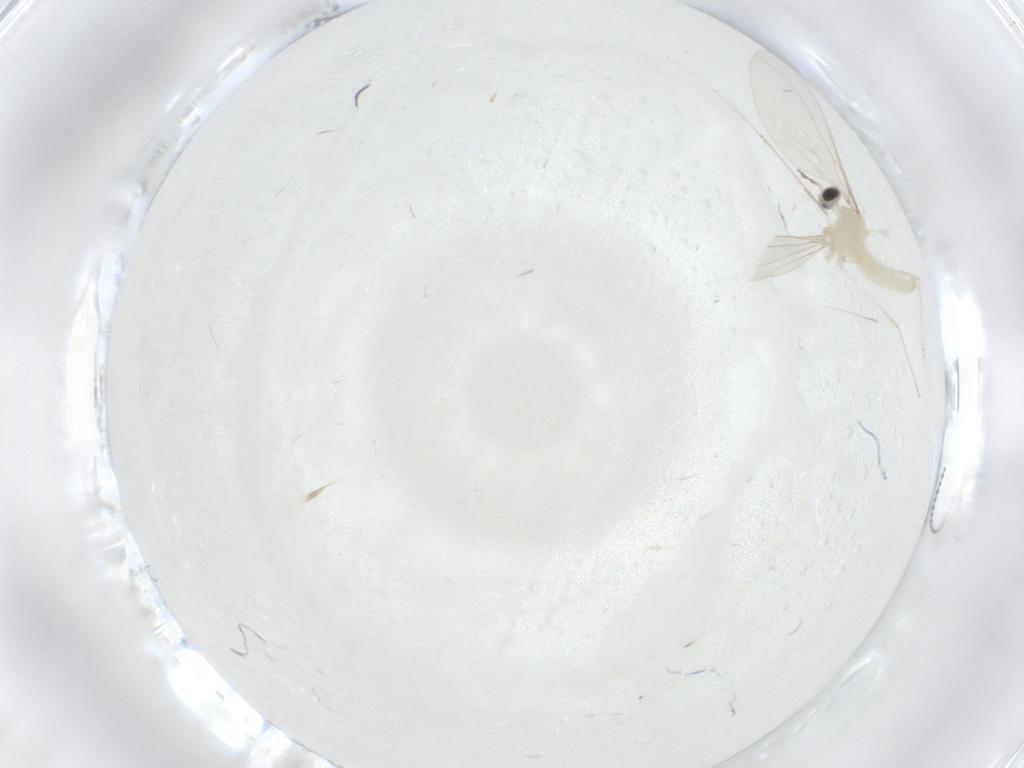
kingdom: Animalia
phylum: Arthropoda
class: Insecta
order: Diptera
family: Cecidomyiidae
